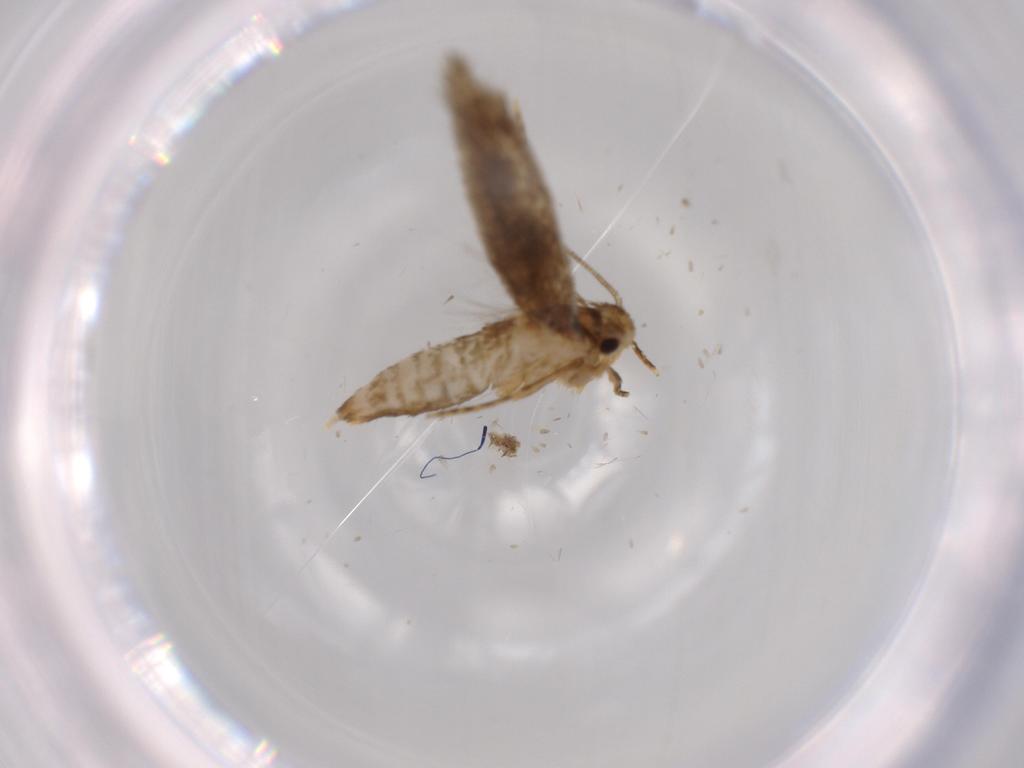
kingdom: Animalia
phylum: Arthropoda
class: Insecta
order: Lepidoptera
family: Tineidae
